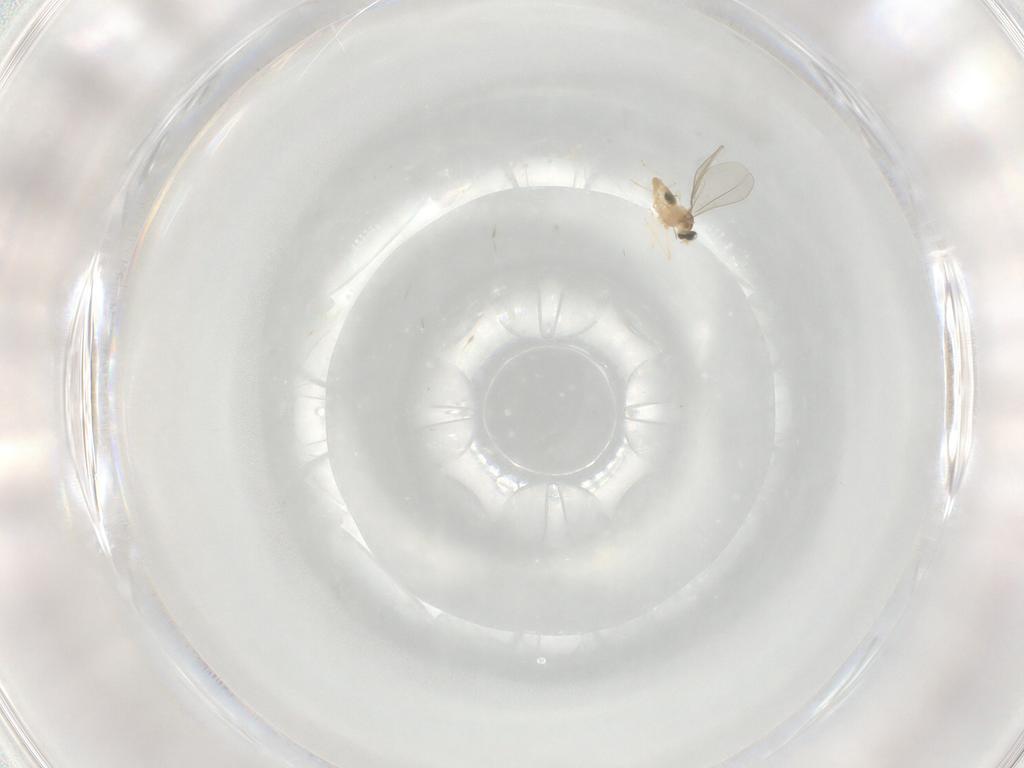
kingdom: Animalia
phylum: Arthropoda
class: Insecta
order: Diptera
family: Cecidomyiidae
